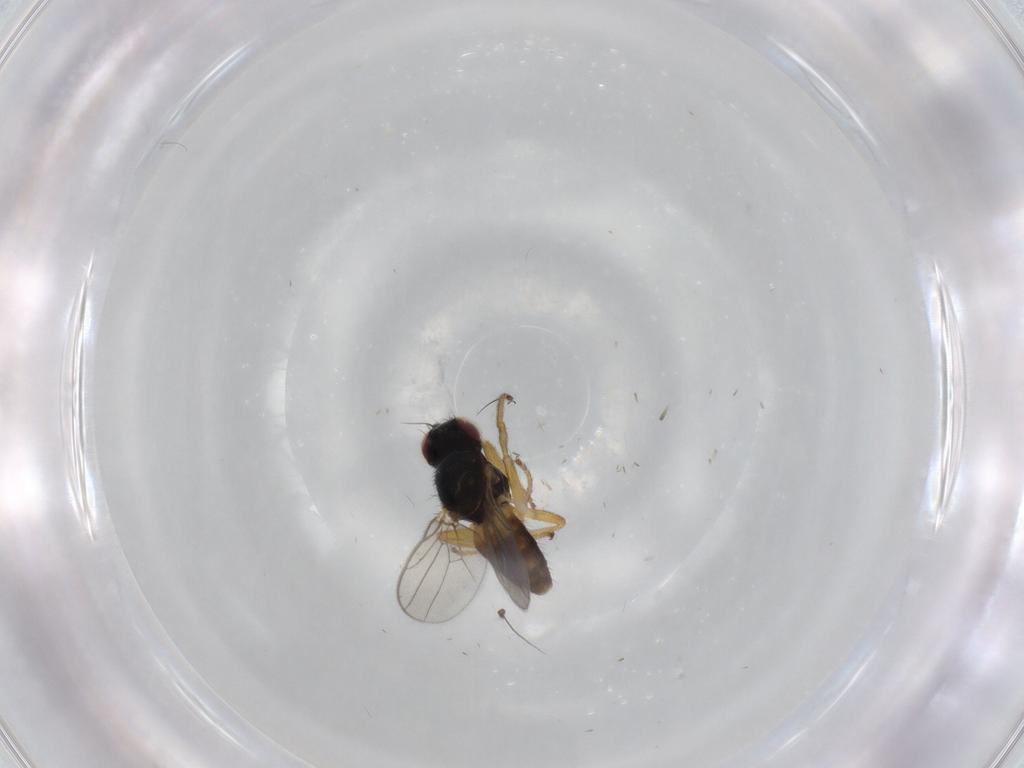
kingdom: Animalia
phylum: Arthropoda
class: Insecta
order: Diptera
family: Chloropidae
